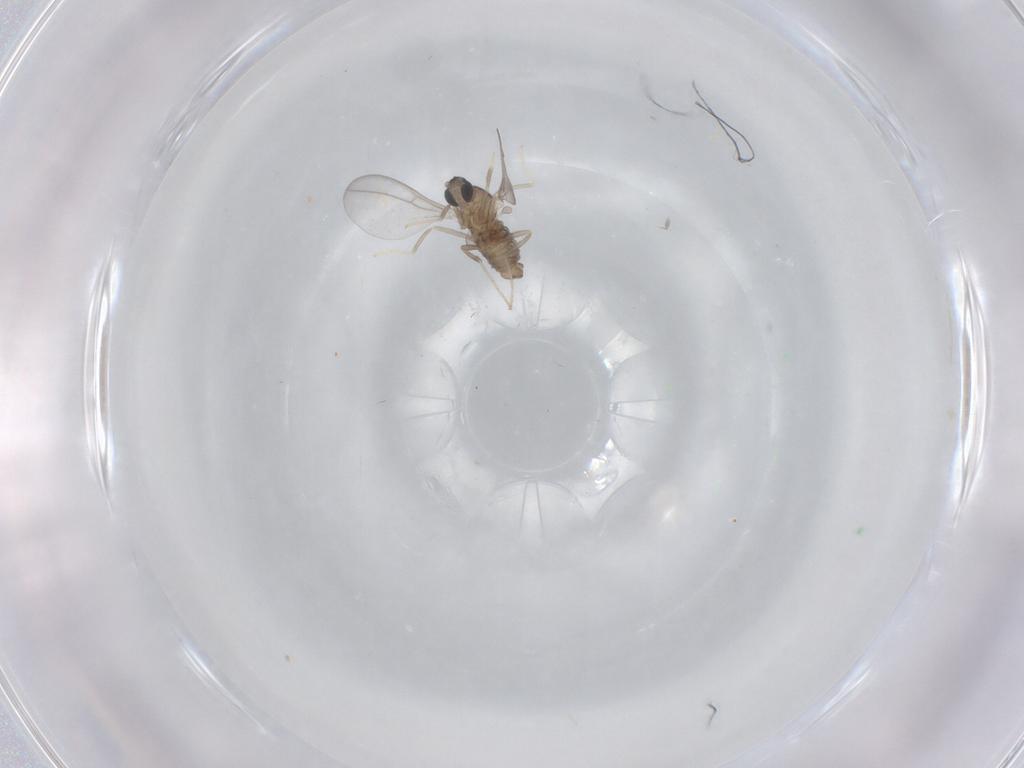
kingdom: Animalia
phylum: Arthropoda
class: Insecta
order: Diptera
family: Cecidomyiidae
